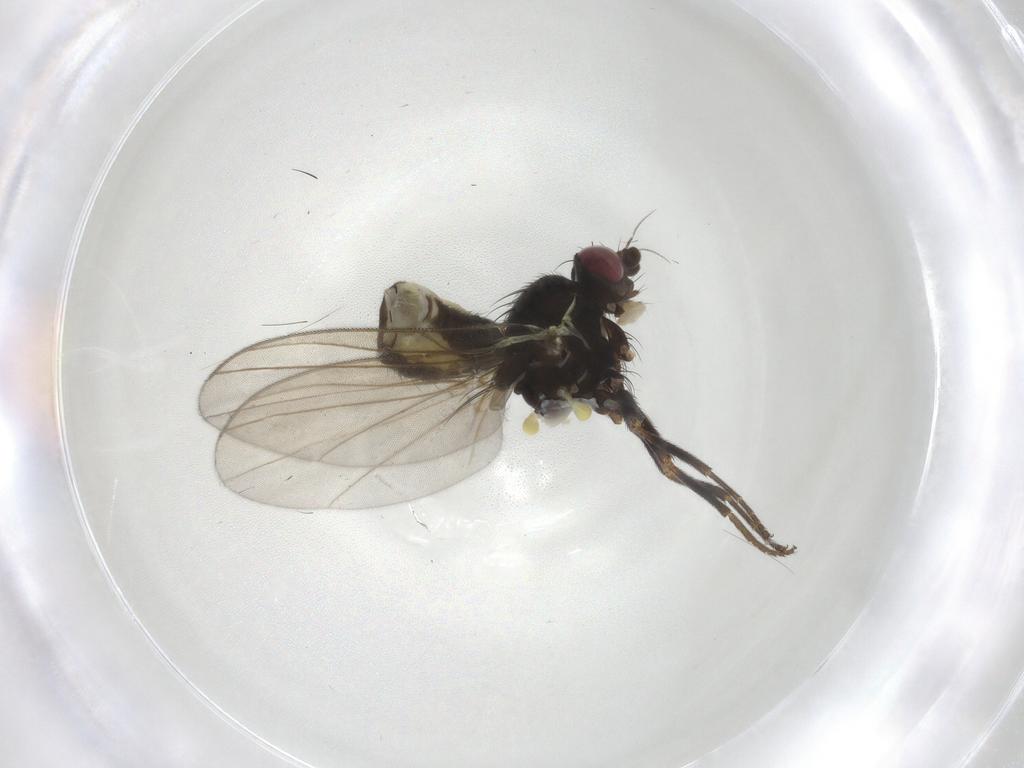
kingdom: Animalia
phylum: Arthropoda
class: Insecta
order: Diptera
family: Agromyzidae
